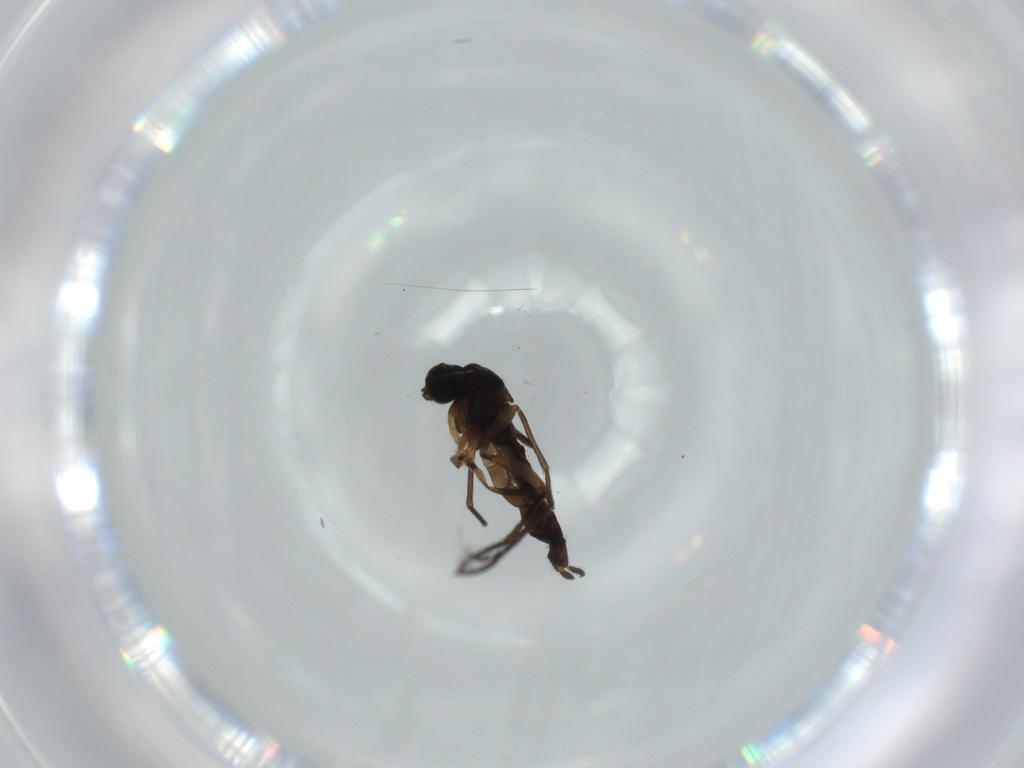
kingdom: Animalia
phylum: Arthropoda
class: Insecta
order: Diptera
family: Sciaridae
